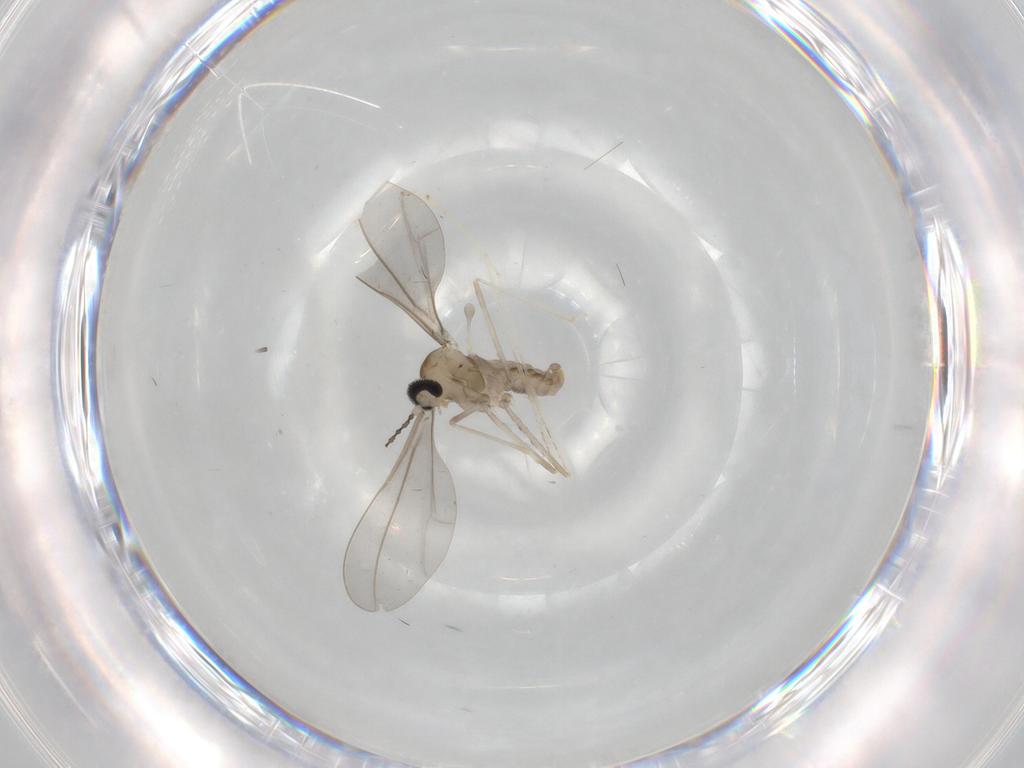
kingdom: Animalia
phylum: Arthropoda
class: Insecta
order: Diptera
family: Cecidomyiidae
